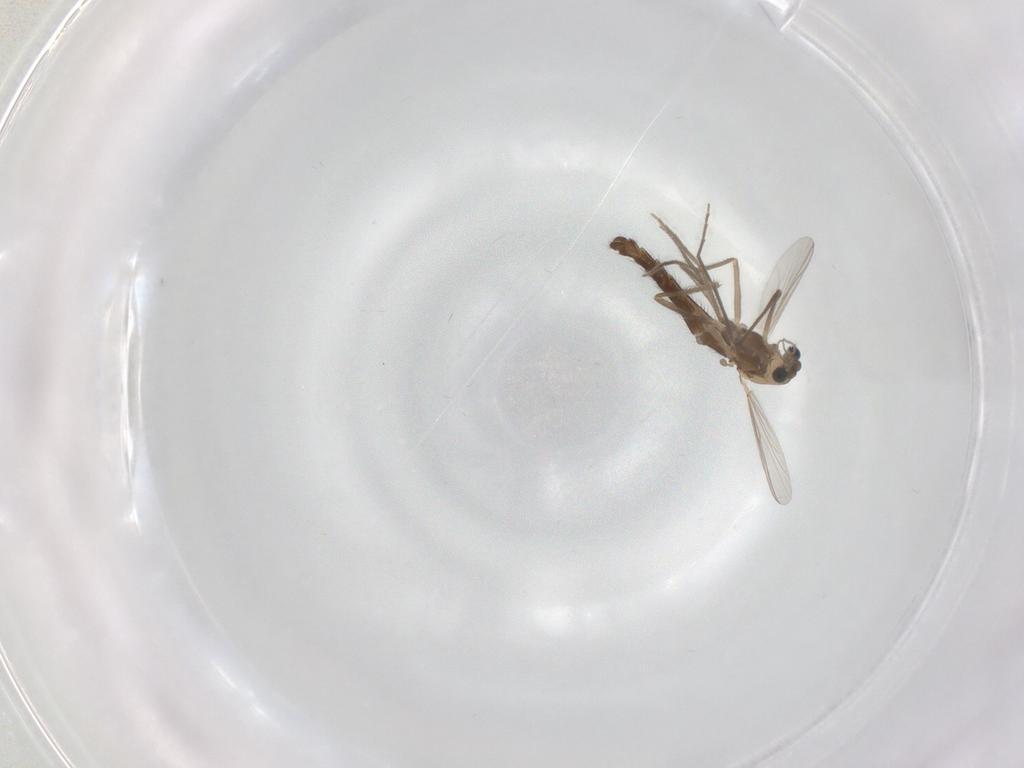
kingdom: Animalia
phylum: Arthropoda
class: Insecta
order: Diptera
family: Chironomidae
